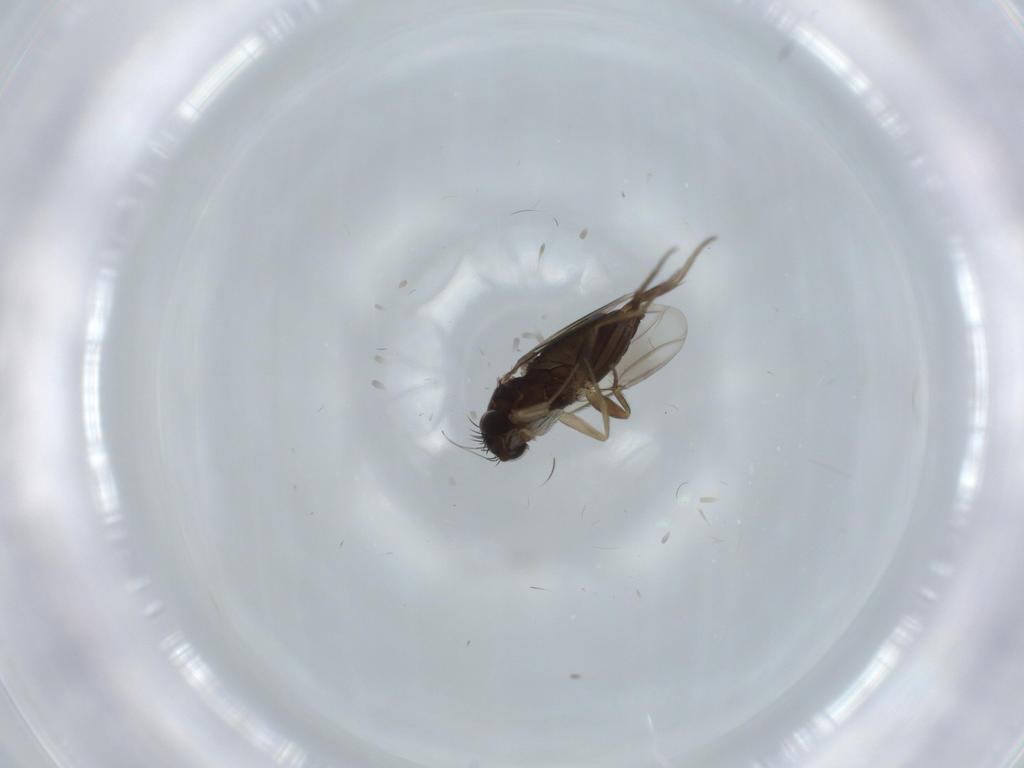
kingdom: Animalia
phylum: Arthropoda
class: Insecta
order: Diptera
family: Phoridae
